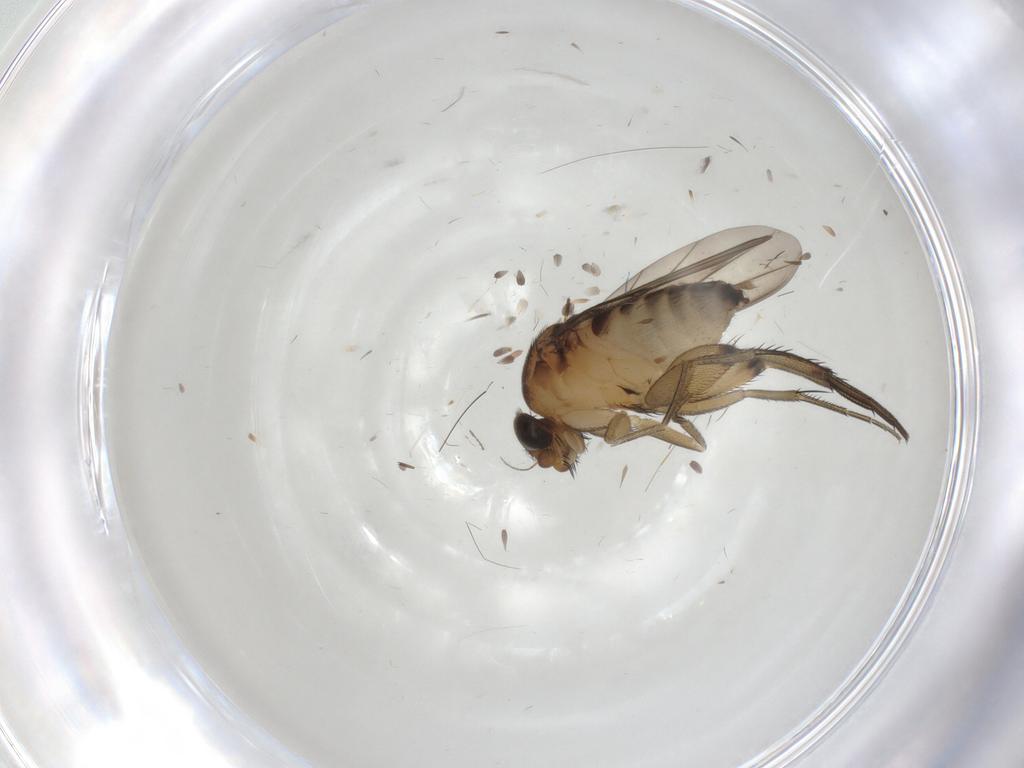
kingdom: Animalia
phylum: Arthropoda
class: Insecta
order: Diptera
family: Chironomidae
